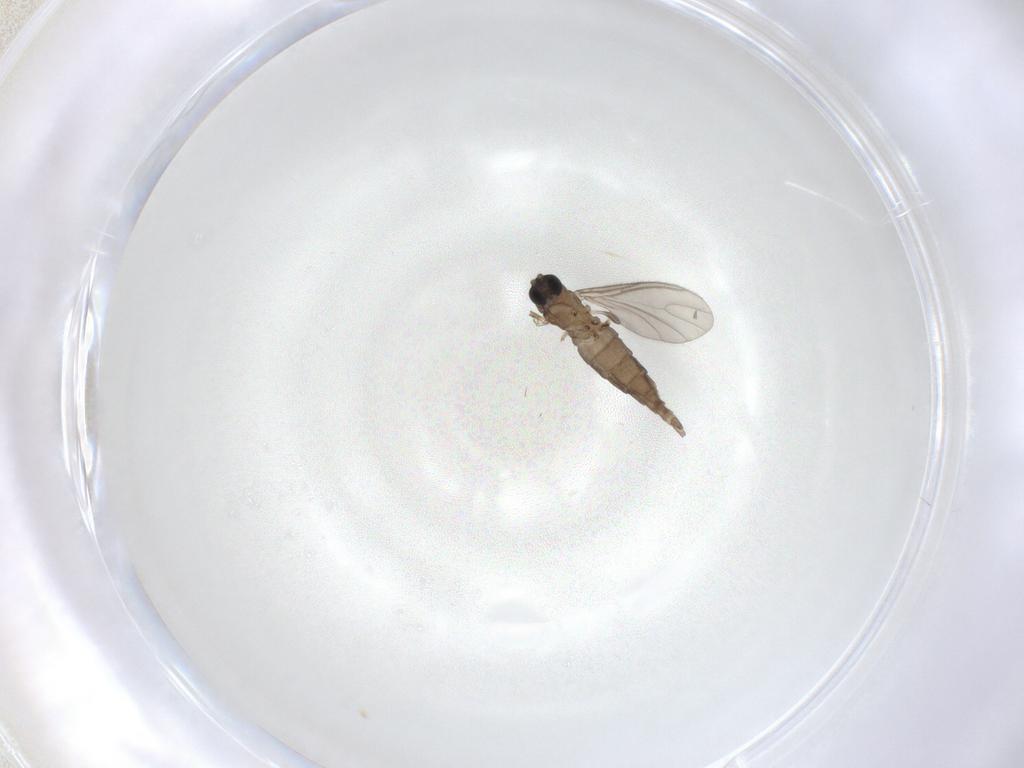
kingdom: Animalia
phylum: Arthropoda
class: Insecta
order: Diptera
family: Sciaridae
